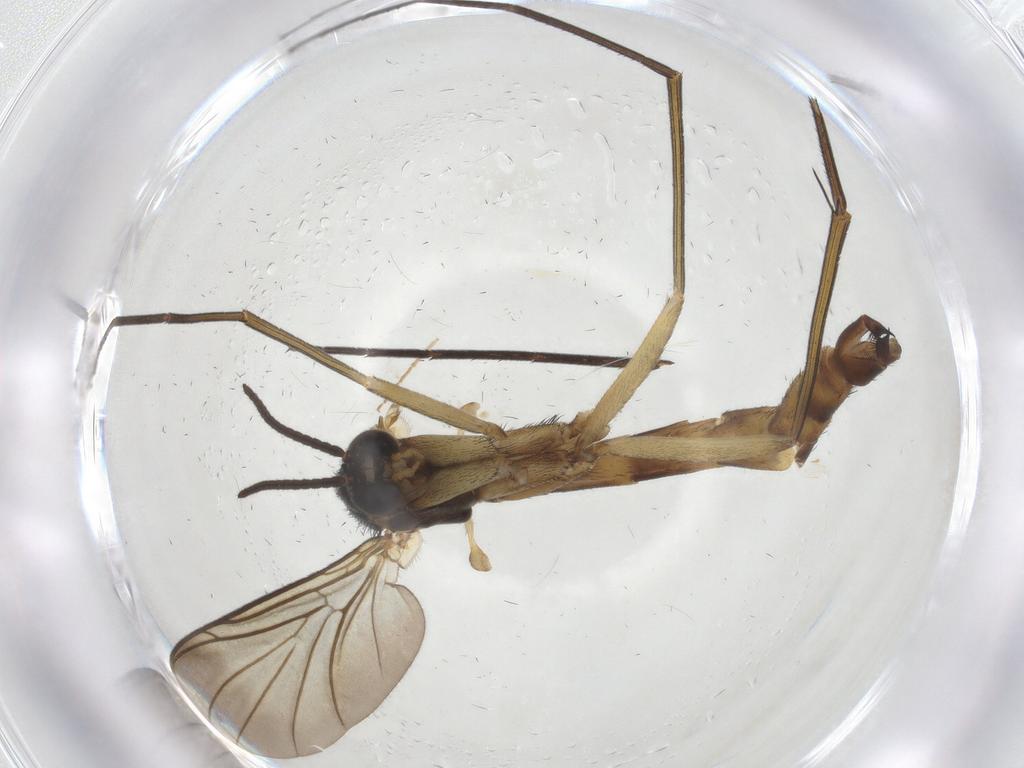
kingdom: Animalia
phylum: Arthropoda
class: Insecta
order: Diptera
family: Keroplatidae
